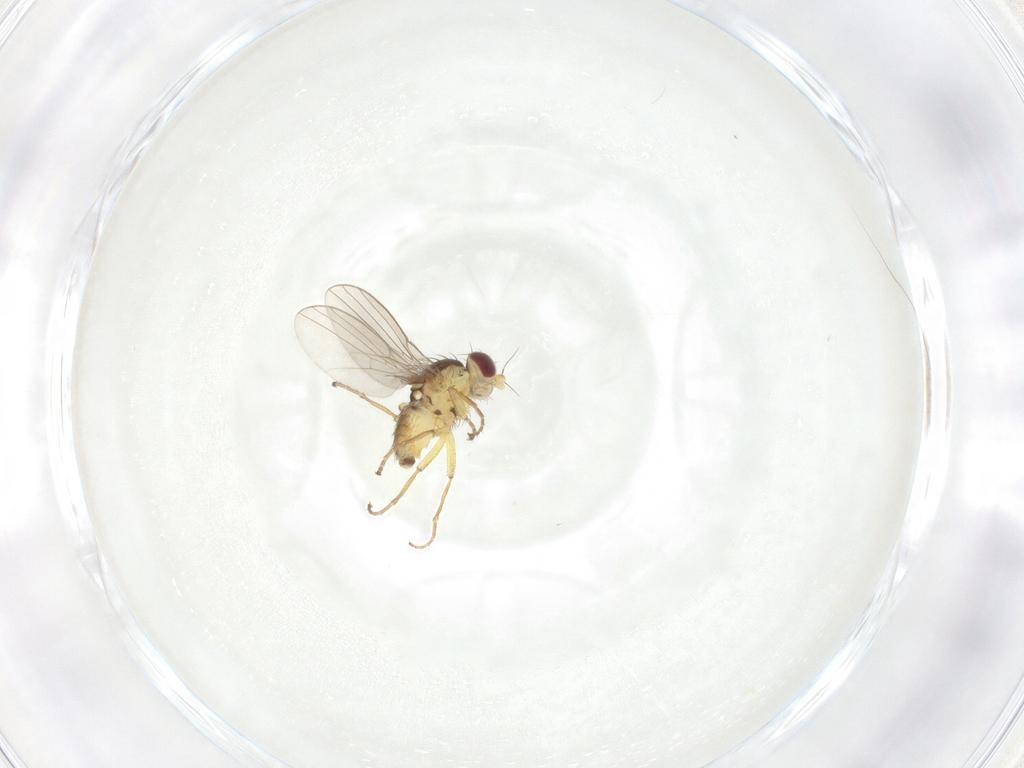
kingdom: Animalia
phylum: Arthropoda
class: Insecta
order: Diptera
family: Agromyzidae
